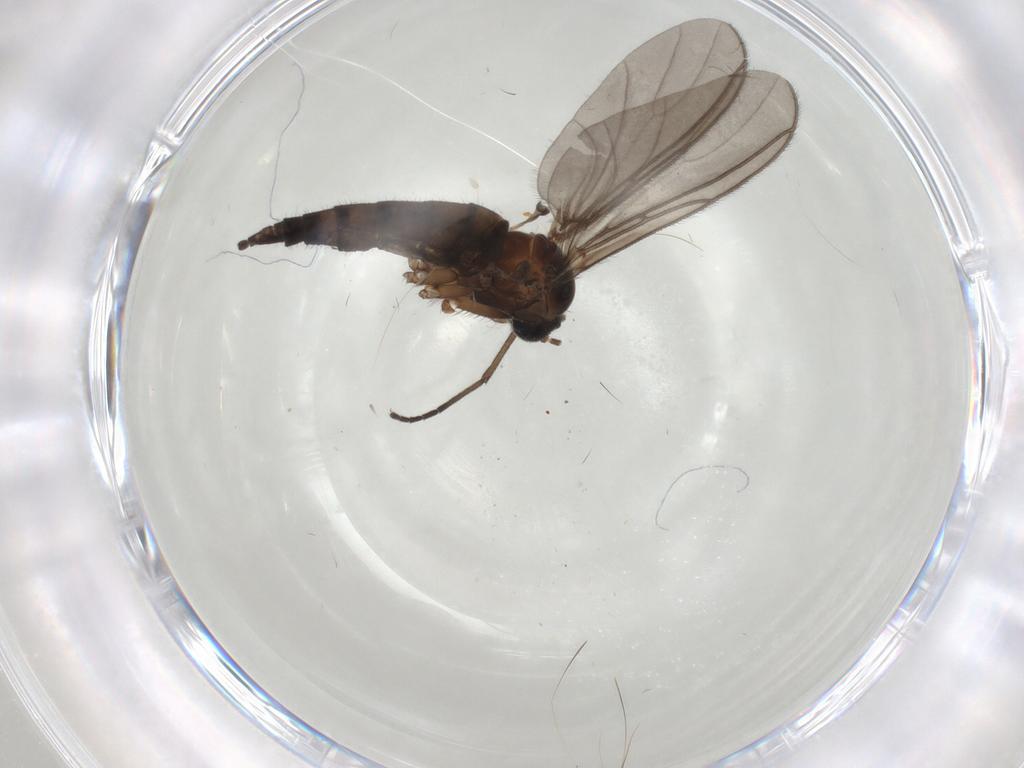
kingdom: Animalia
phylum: Arthropoda
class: Insecta
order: Diptera
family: Sciaridae
